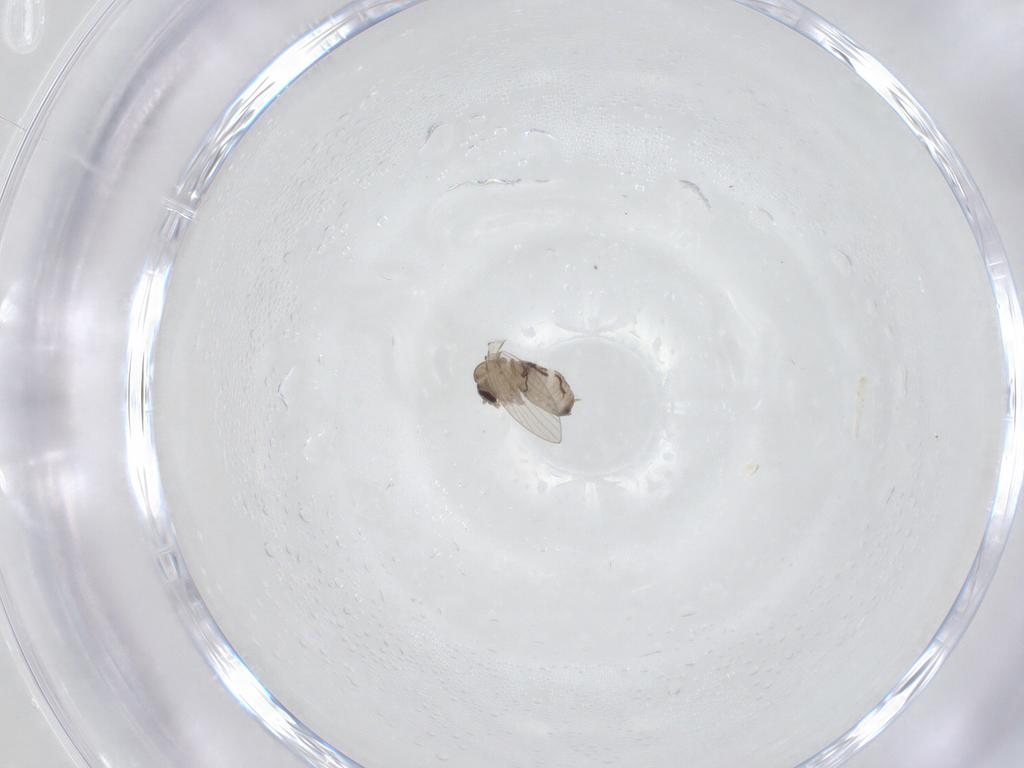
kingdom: Animalia
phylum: Arthropoda
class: Insecta
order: Diptera
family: Psychodidae
